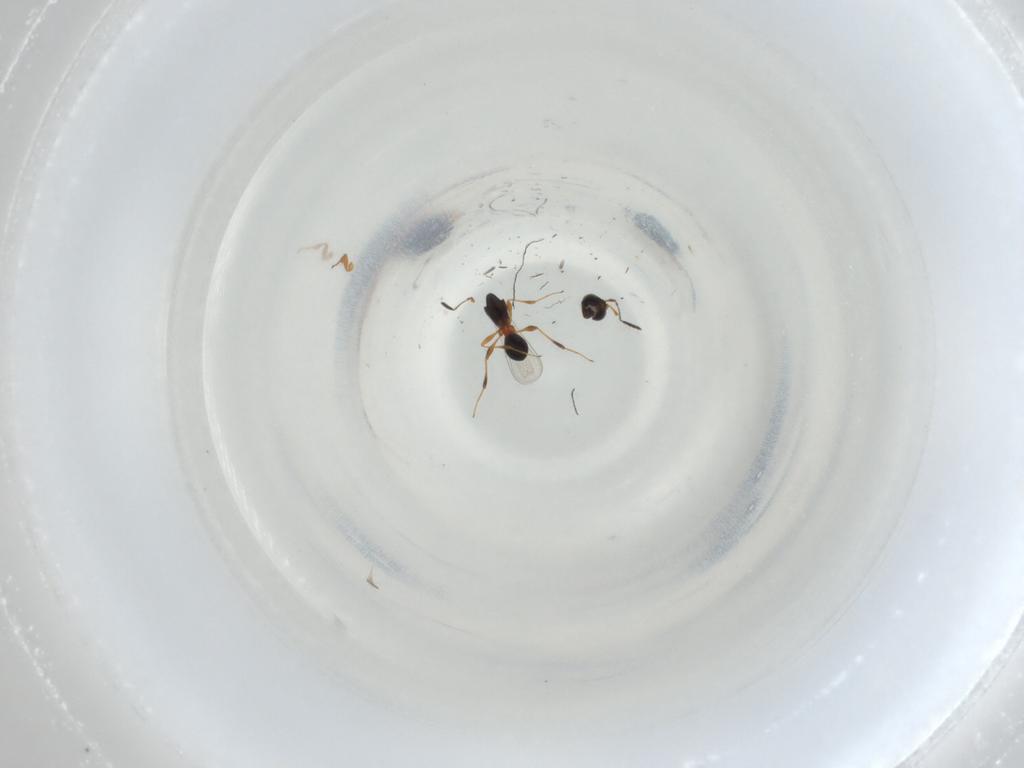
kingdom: Animalia
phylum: Arthropoda
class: Insecta
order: Hymenoptera
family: Platygastridae
